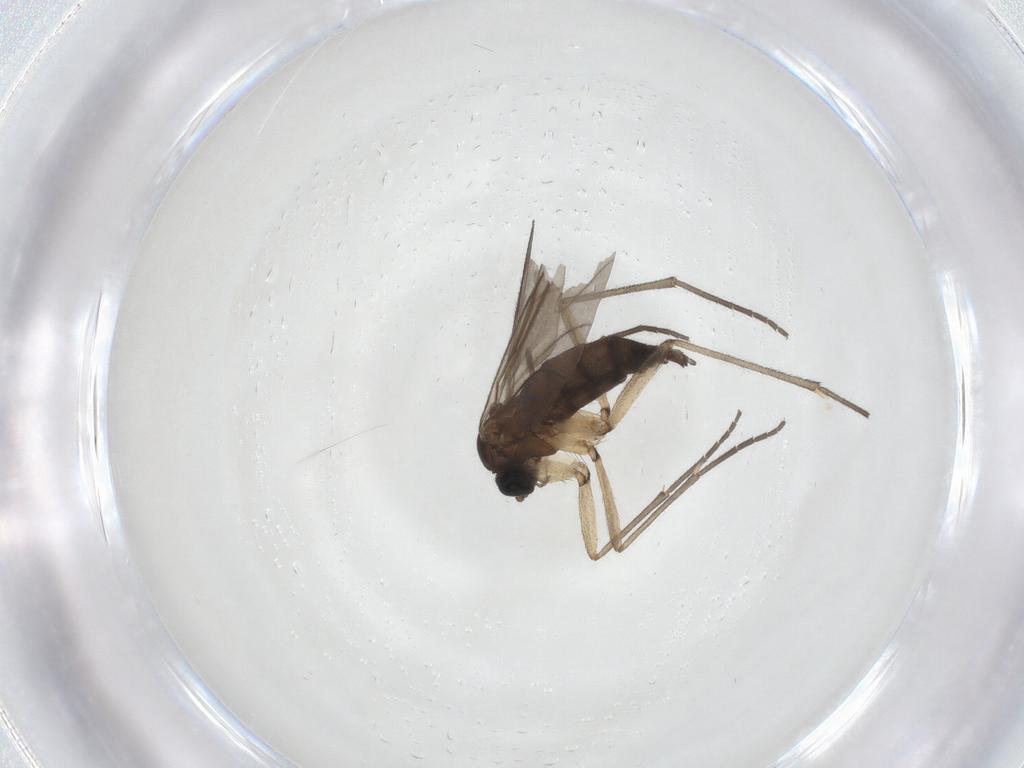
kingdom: Animalia
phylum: Arthropoda
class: Insecta
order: Diptera
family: Sciaridae
